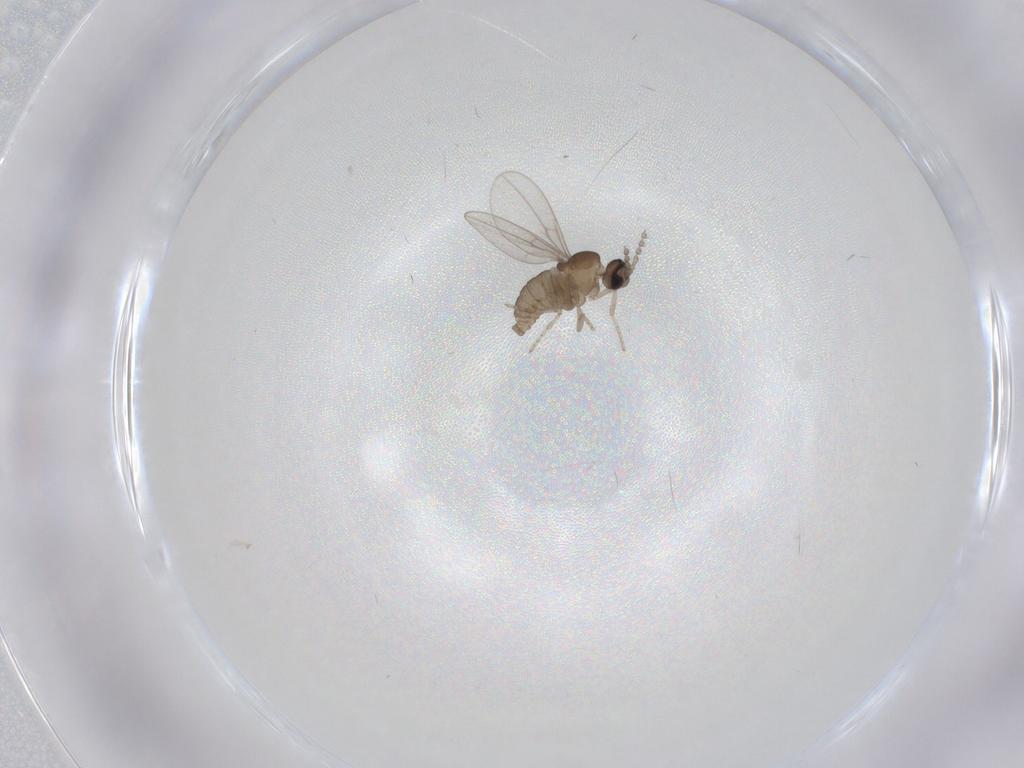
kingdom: Animalia
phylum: Arthropoda
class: Insecta
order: Diptera
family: Cecidomyiidae
